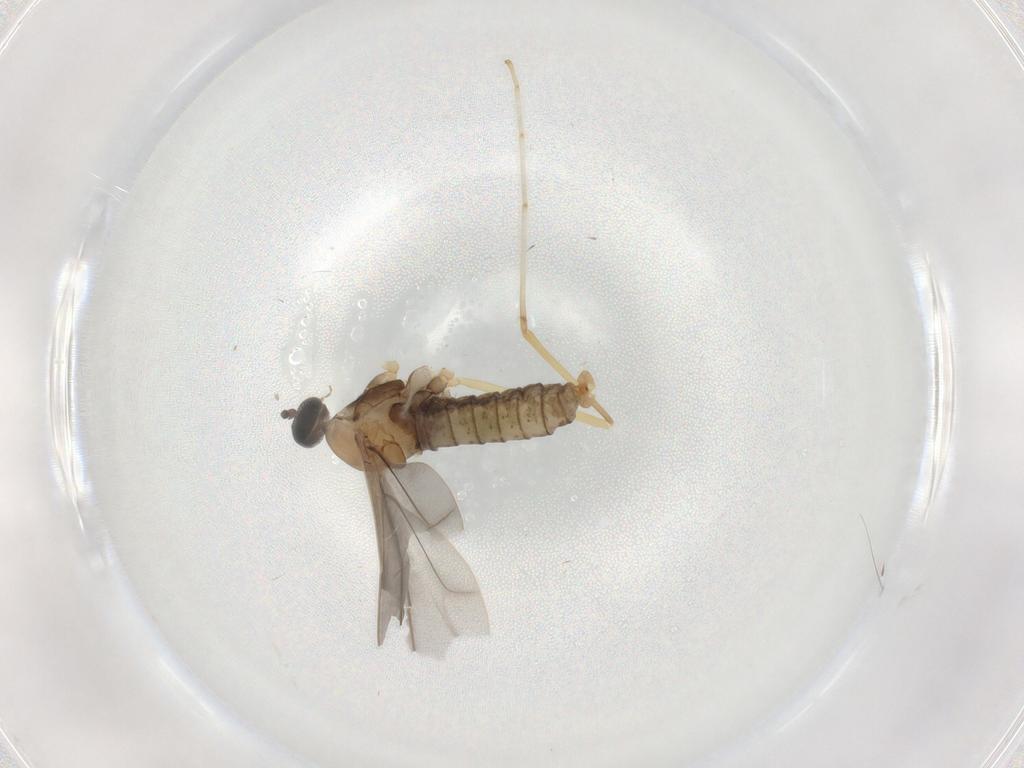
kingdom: Animalia
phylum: Arthropoda
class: Insecta
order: Diptera
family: Cecidomyiidae
